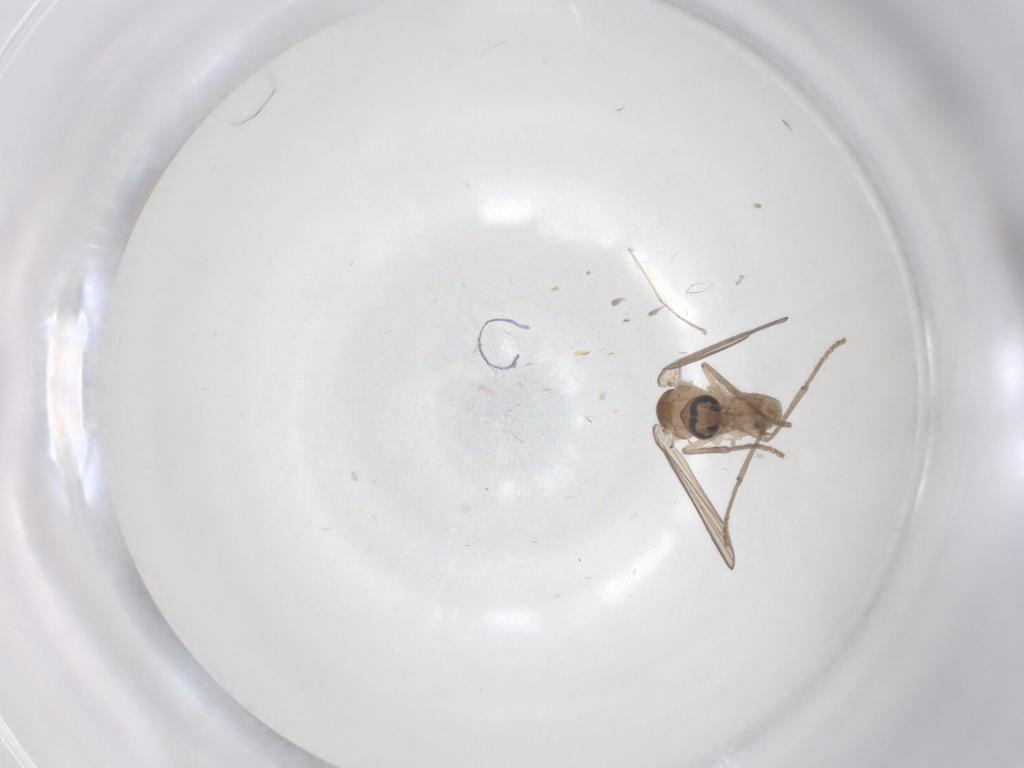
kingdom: Animalia
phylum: Arthropoda
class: Insecta
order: Diptera
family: Psychodidae
